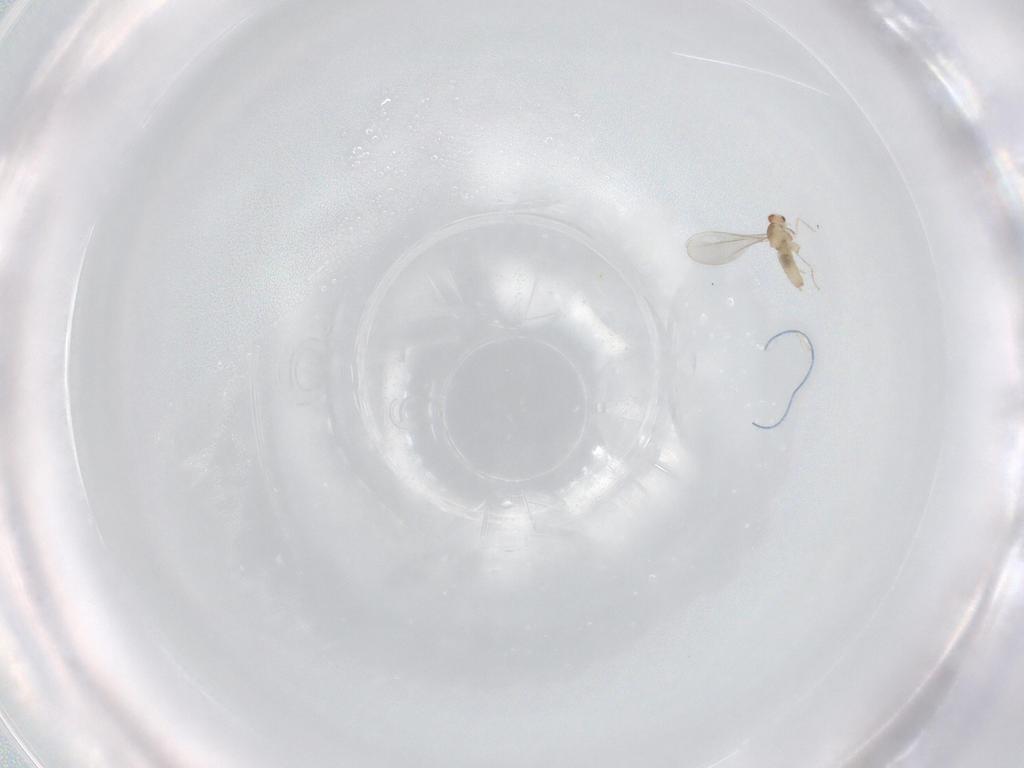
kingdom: Animalia
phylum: Arthropoda
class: Insecta
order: Diptera
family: Cecidomyiidae
